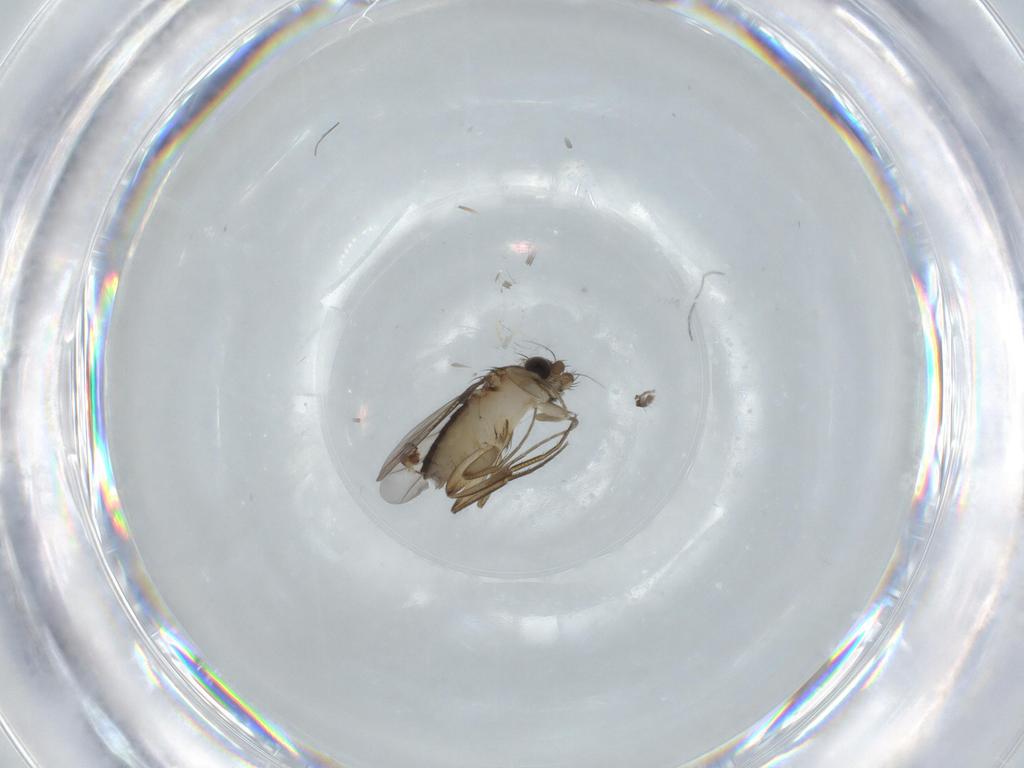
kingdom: Animalia
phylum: Arthropoda
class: Insecta
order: Diptera
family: Phoridae
